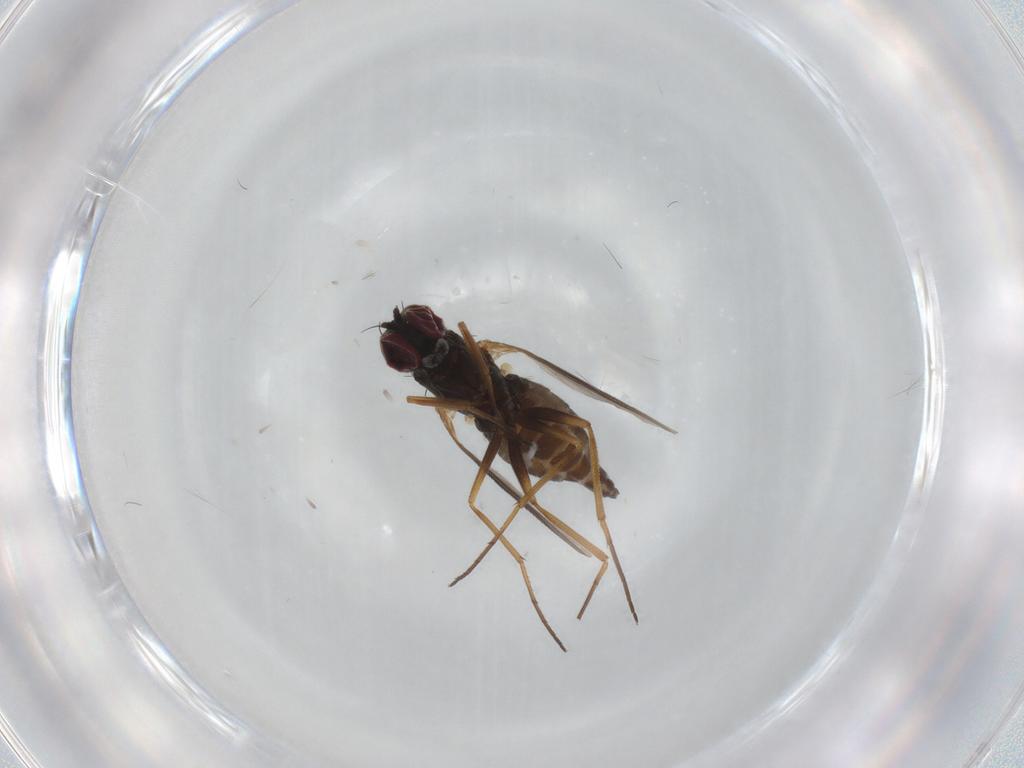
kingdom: Animalia
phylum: Arthropoda
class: Insecta
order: Diptera
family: Dolichopodidae
